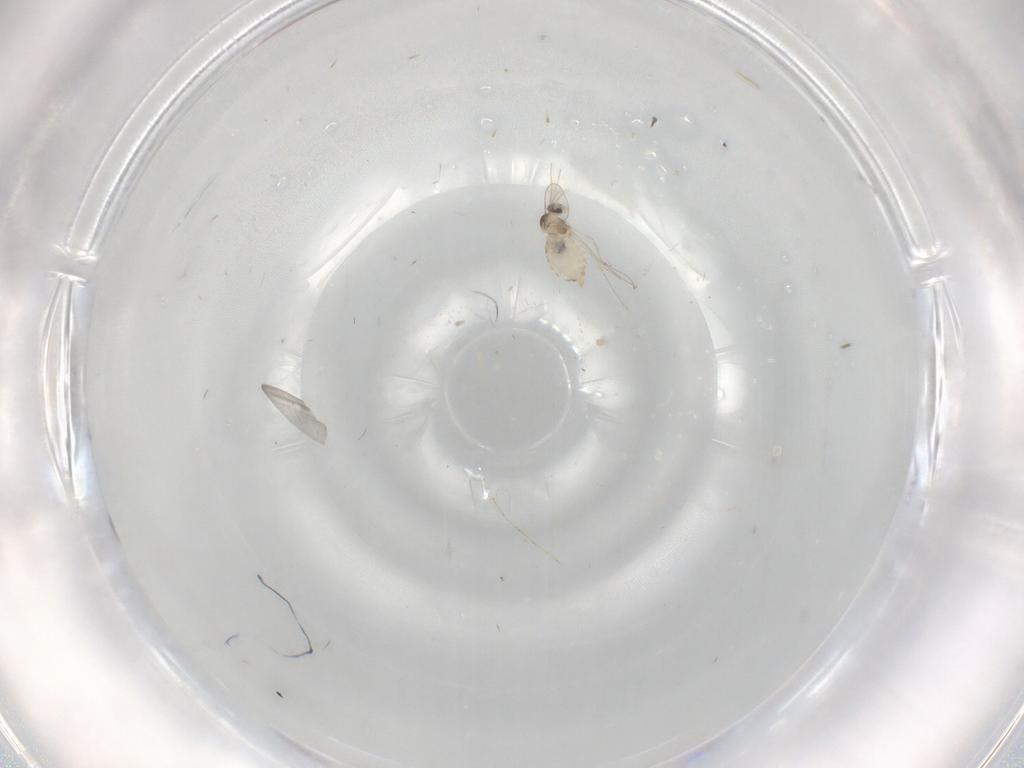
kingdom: Animalia
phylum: Arthropoda
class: Insecta
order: Diptera
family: Cecidomyiidae
